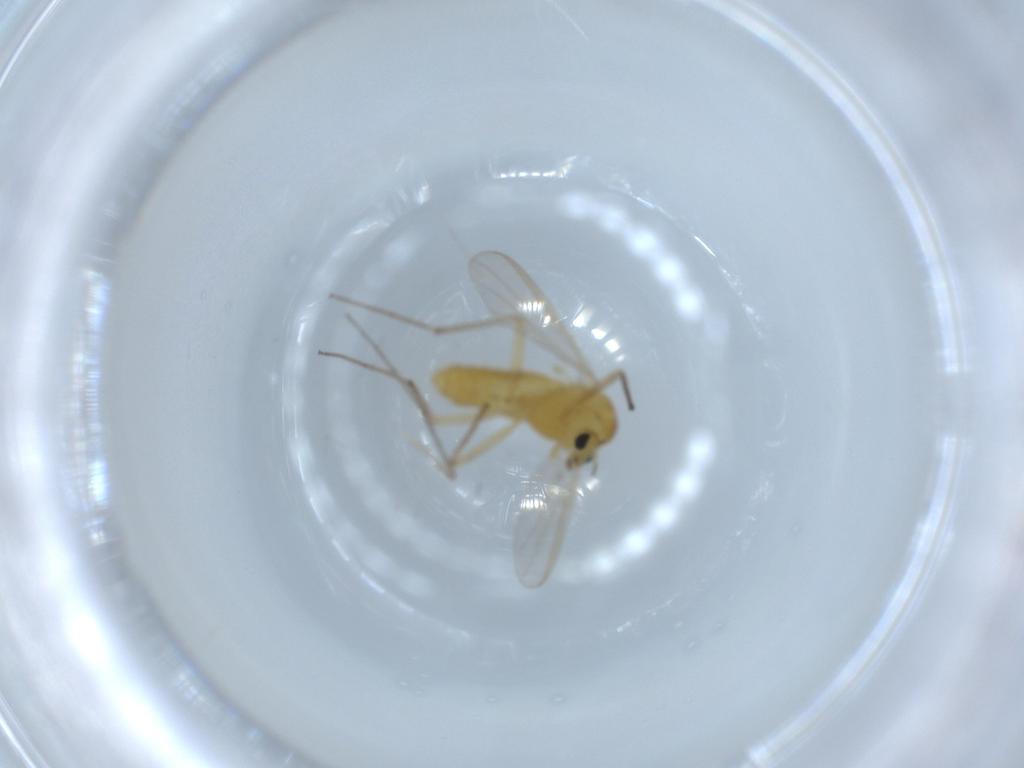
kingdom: Animalia
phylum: Arthropoda
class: Insecta
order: Diptera
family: Chironomidae
